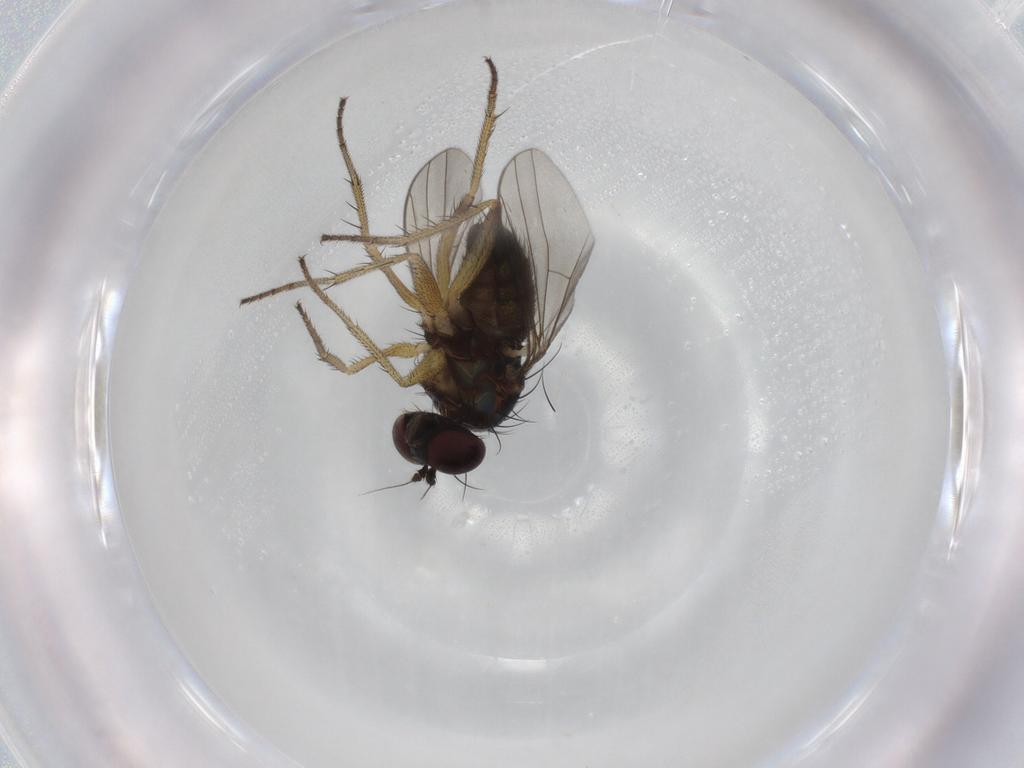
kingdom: Animalia
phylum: Arthropoda
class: Insecta
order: Diptera
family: Dolichopodidae
